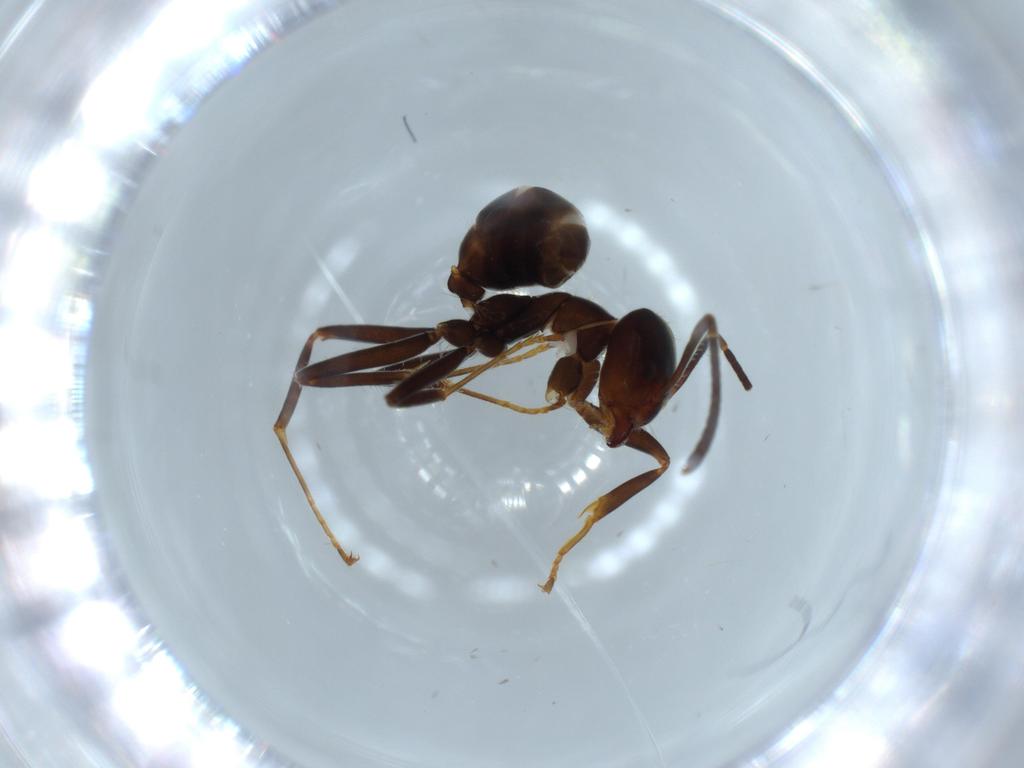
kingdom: Animalia
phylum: Arthropoda
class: Insecta
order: Hymenoptera
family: Formicidae
